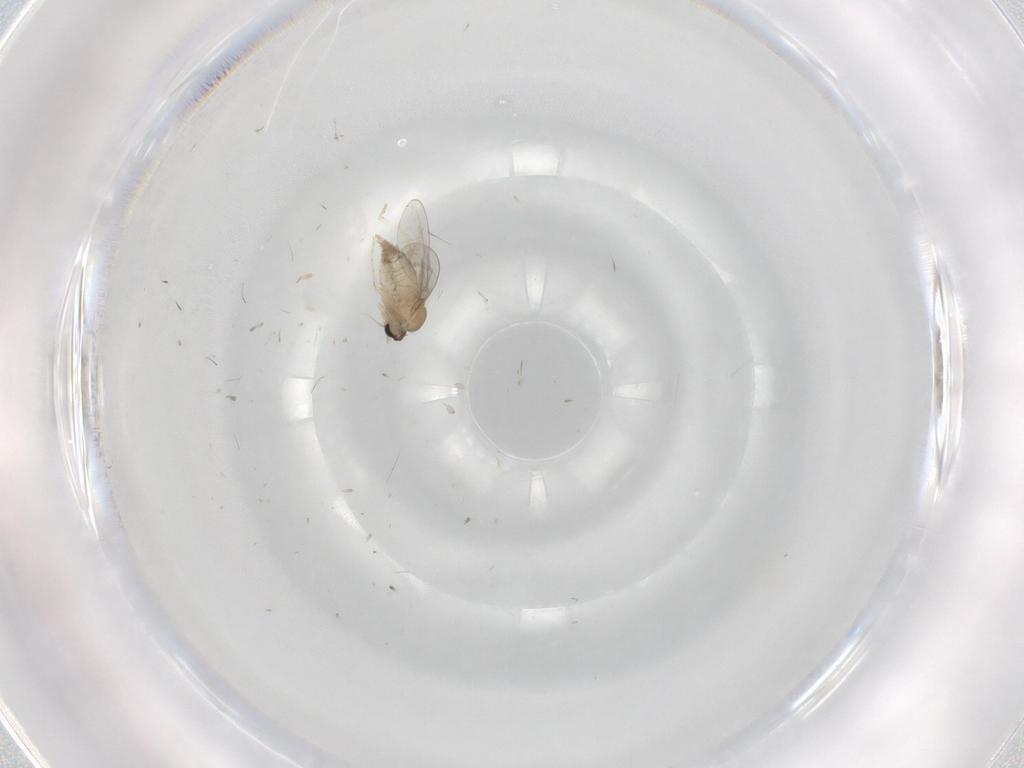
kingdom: Animalia
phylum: Arthropoda
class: Insecta
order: Diptera
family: Cecidomyiidae
